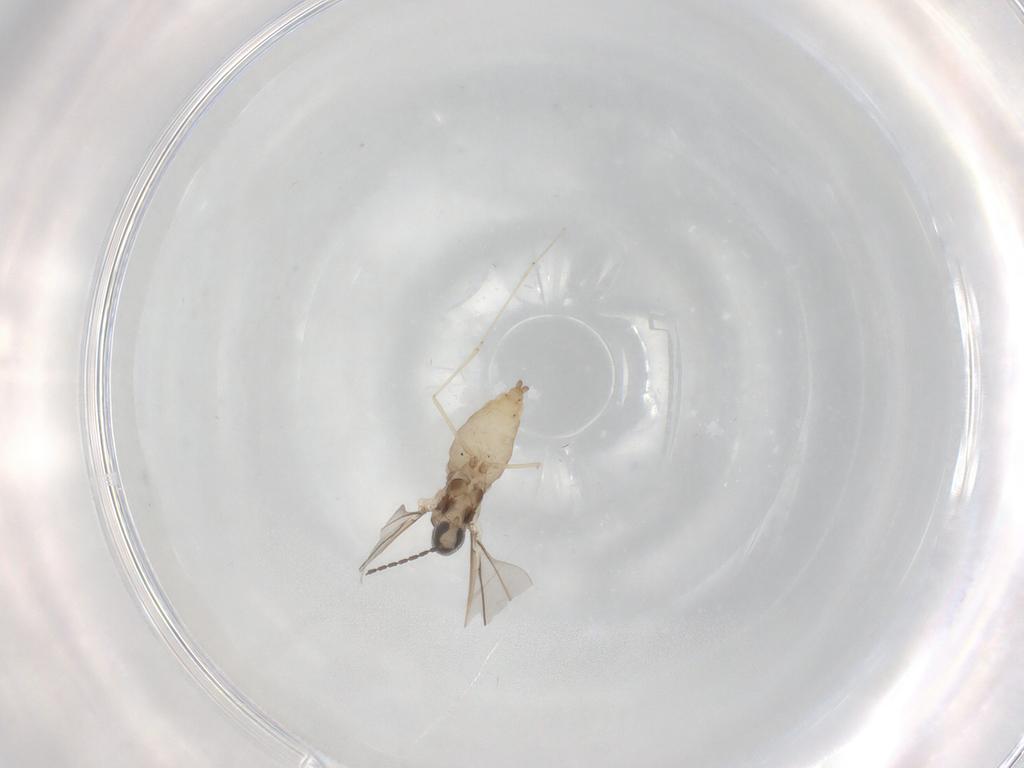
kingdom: Animalia
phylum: Arthropoda
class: Insecta
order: Diptera
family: Cecidomyiidae
